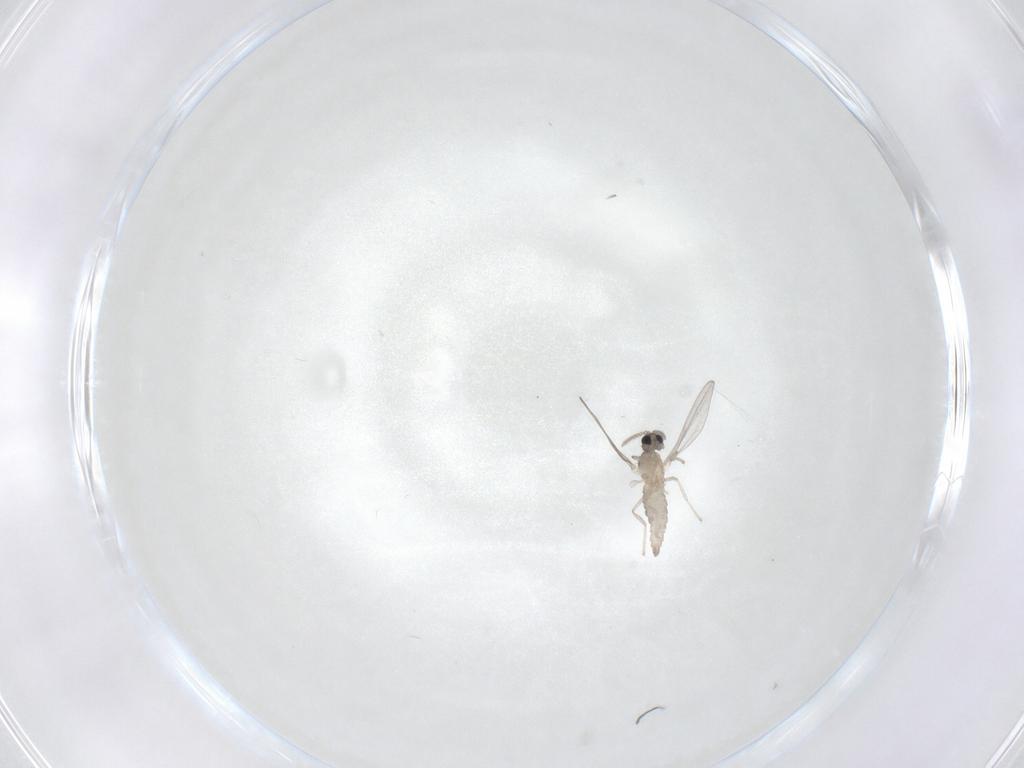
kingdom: Animalia
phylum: Arthropoda
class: Insecta
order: Diptera
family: Cecidomyiidae
